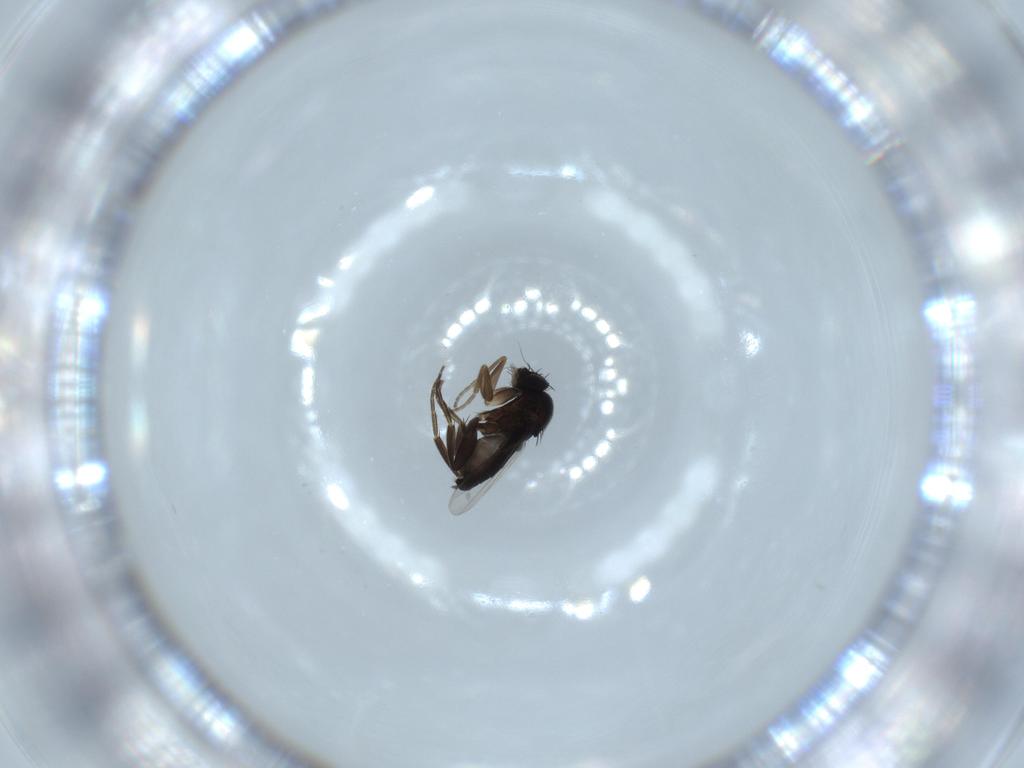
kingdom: Animalia
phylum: Arthropoda
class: Insecta
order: Diptera
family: Phoridae
